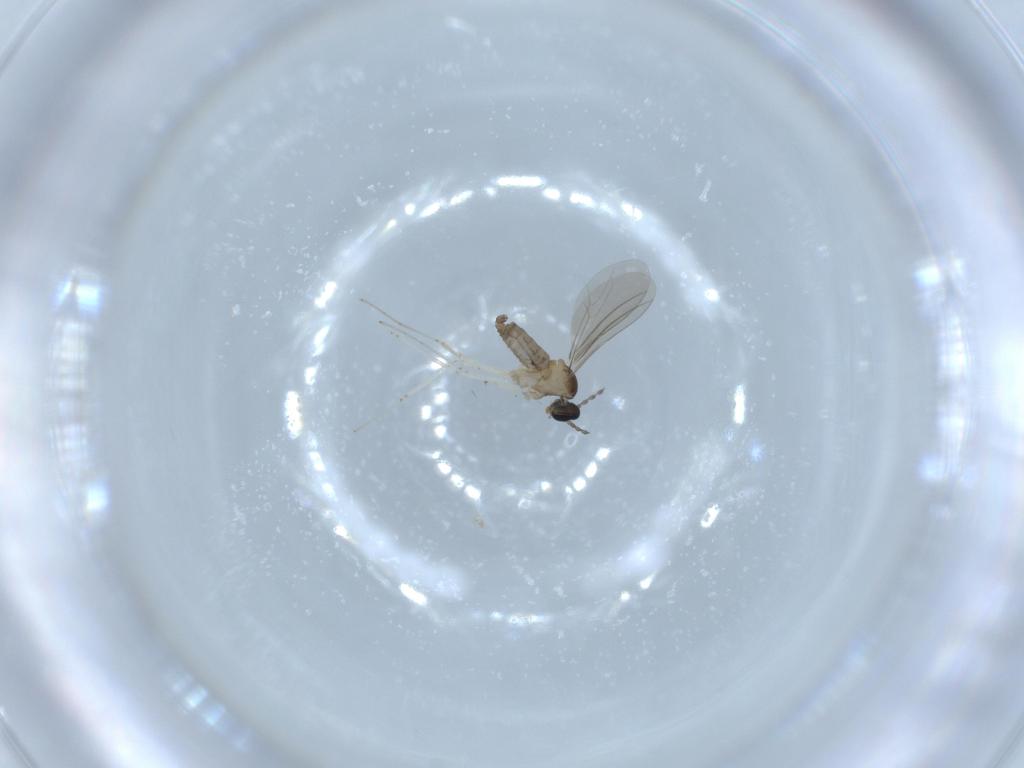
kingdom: Animalia
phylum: Arthropoda
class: Insecta
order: Diptera
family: Cecidomyiidae
